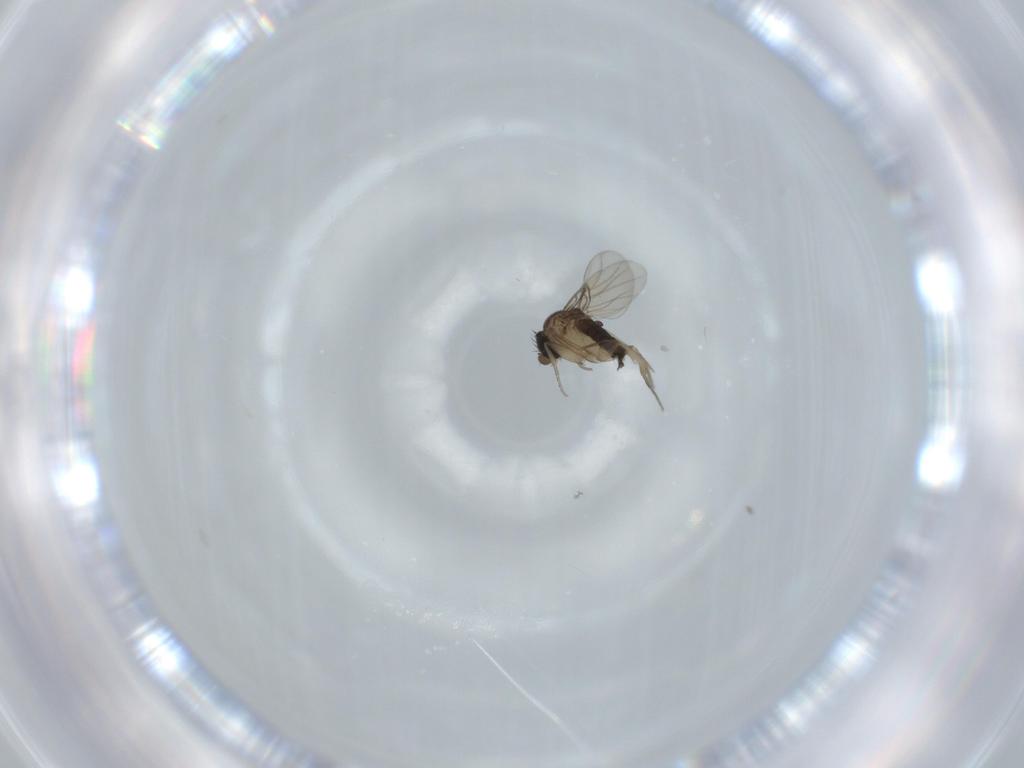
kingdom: Animalia
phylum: Arthropoda
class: Insecta
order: Diptera
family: Phoridae
